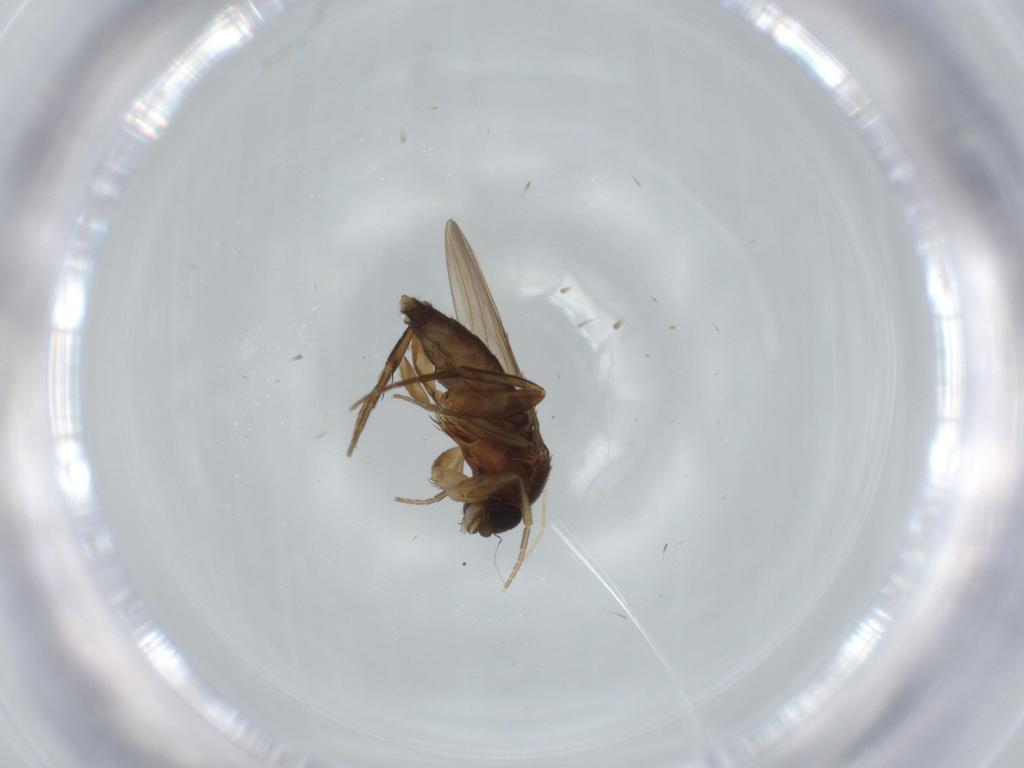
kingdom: Animalia
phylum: Arthropoda
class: Insecta
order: Diptera
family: Phoridae
